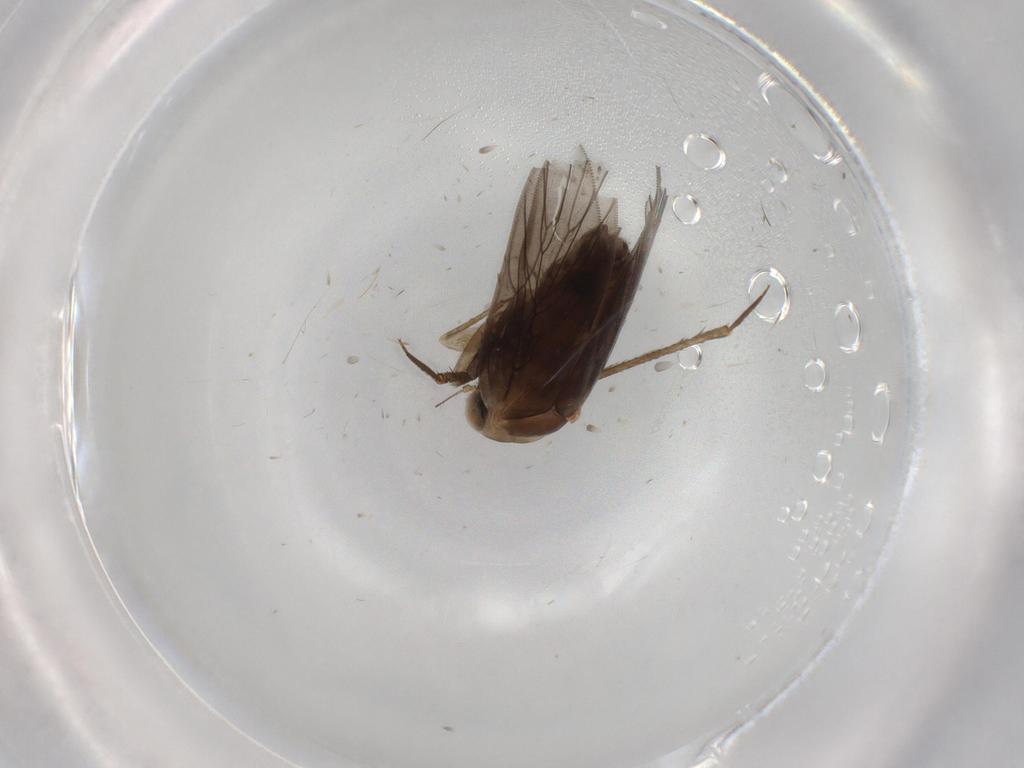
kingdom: Animalia
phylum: Arthropoda
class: Insecta
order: Psocodea
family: Lepidopsocidae
